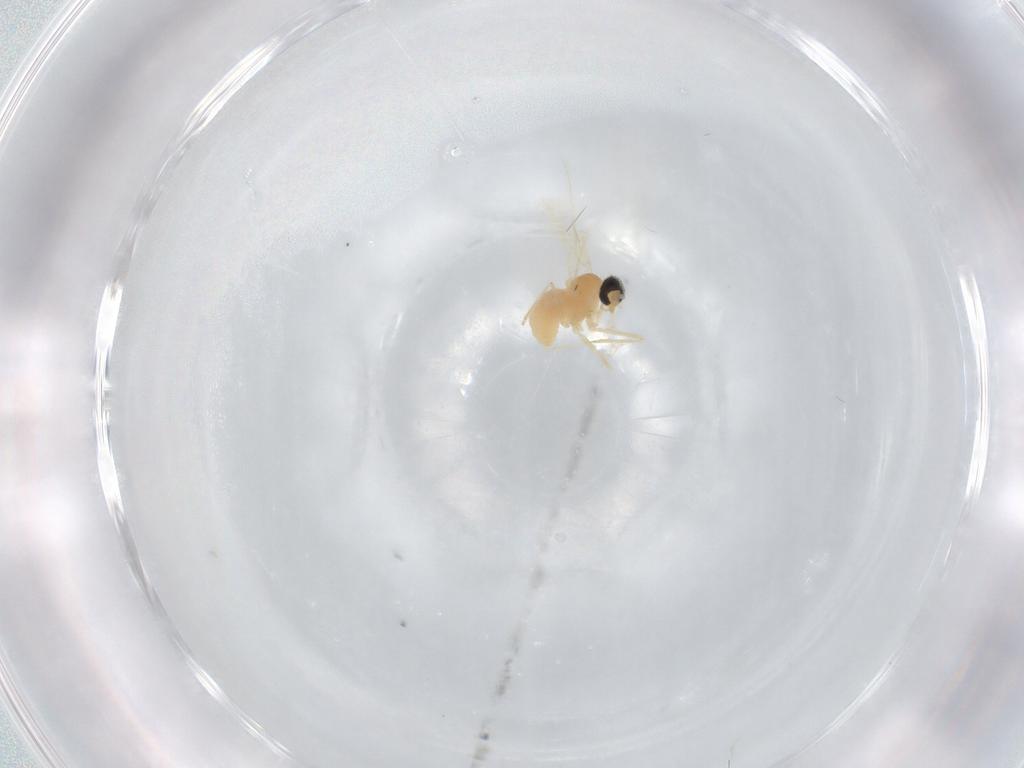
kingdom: Animalia
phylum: Arthropoda
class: Insecta
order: Diptera
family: Cecidomyiidae
